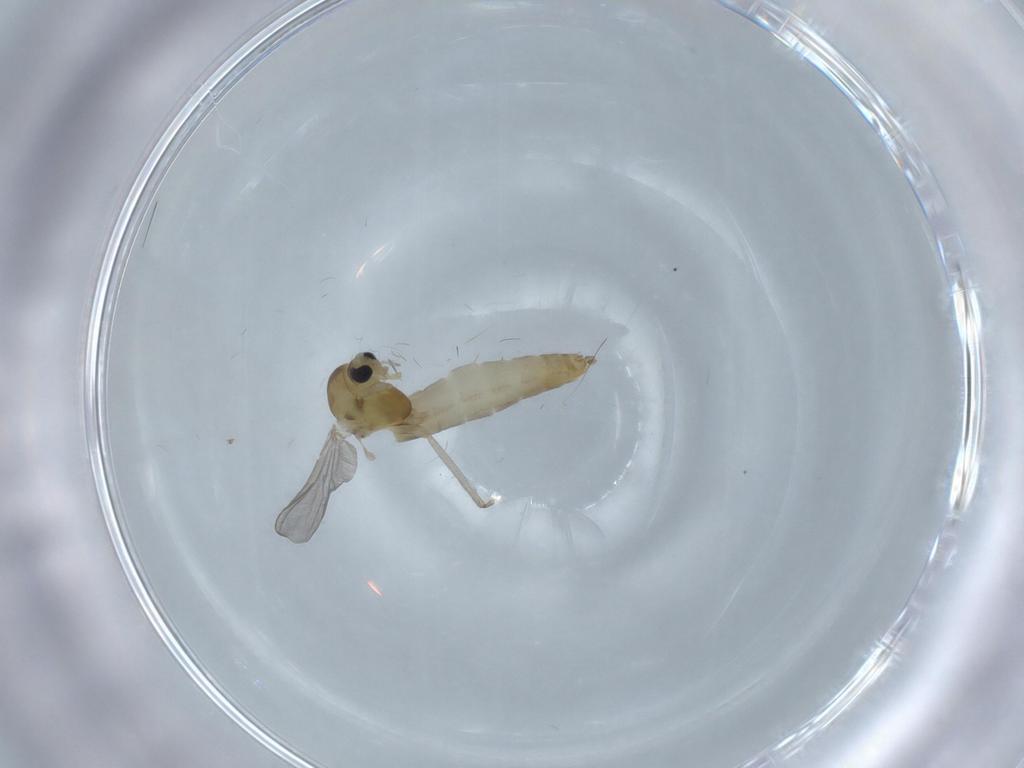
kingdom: Animalia
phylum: Arthropoda
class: Insecta
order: Diptera
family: Chironomidae
